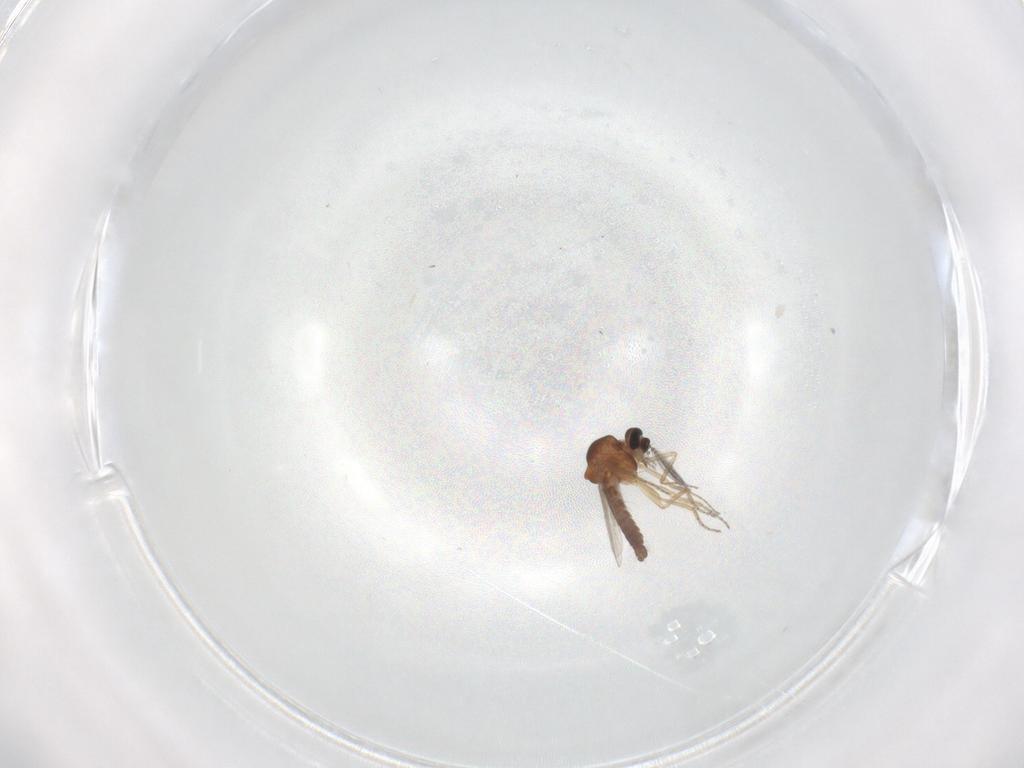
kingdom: Animalia
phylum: Arthropoda
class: Insecta
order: Diptera
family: Ceratopogonidae
